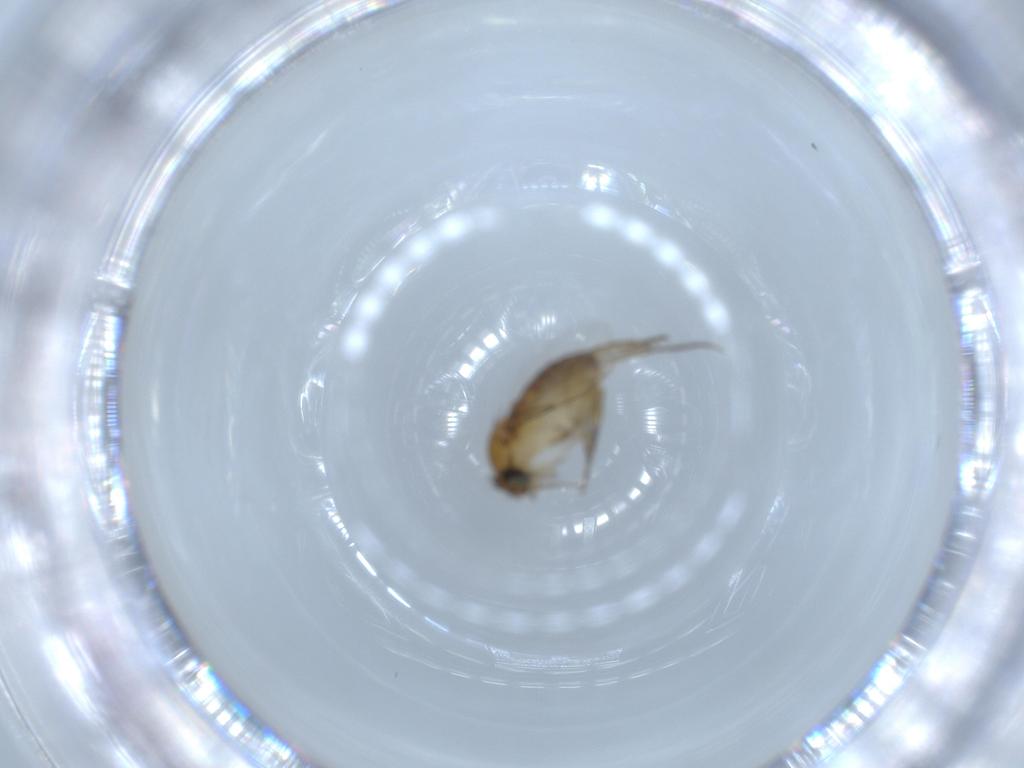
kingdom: Animalia
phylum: Arthropoda
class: Insecta
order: Diptera
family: Phoridae
